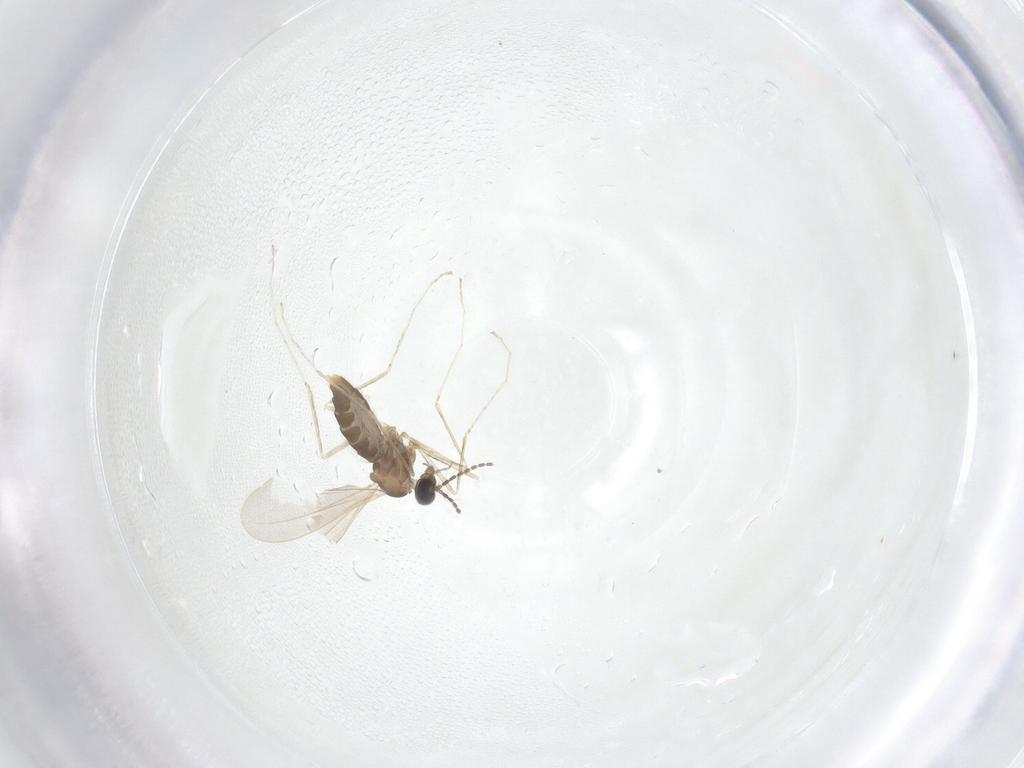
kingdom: Animalia
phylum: Arthropoda
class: Insecta
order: Diptera
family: Cecidomyiidae
